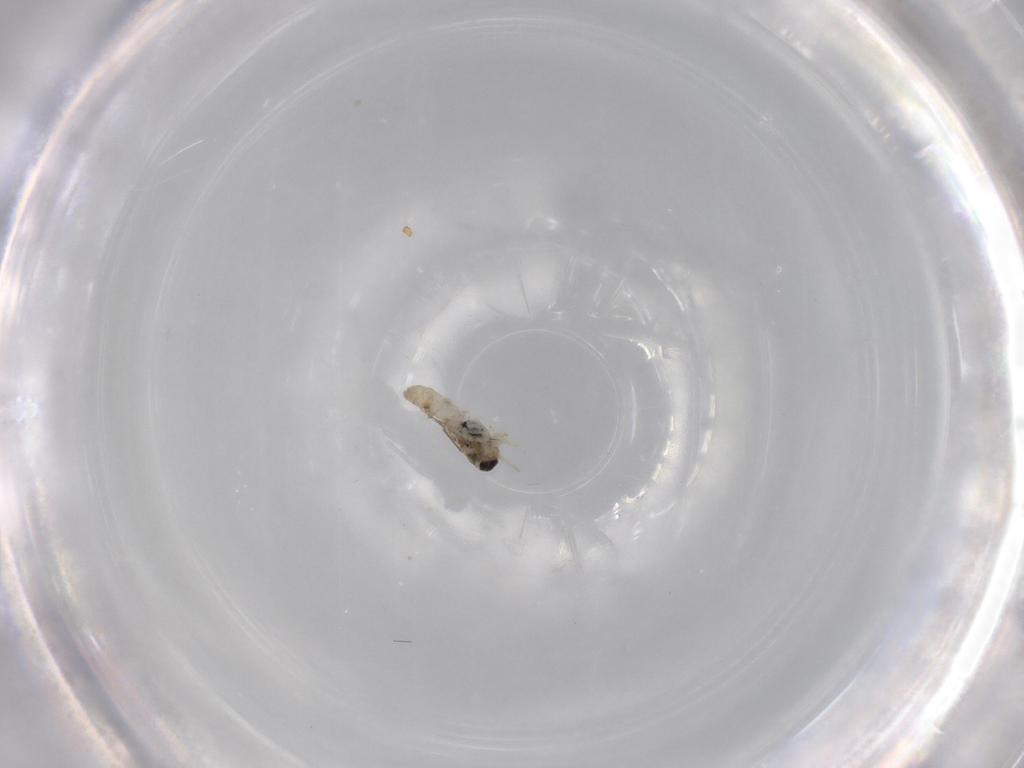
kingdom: Animalia
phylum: Arthropoda
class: Insecta
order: Diptera
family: Cecidomyiidae
